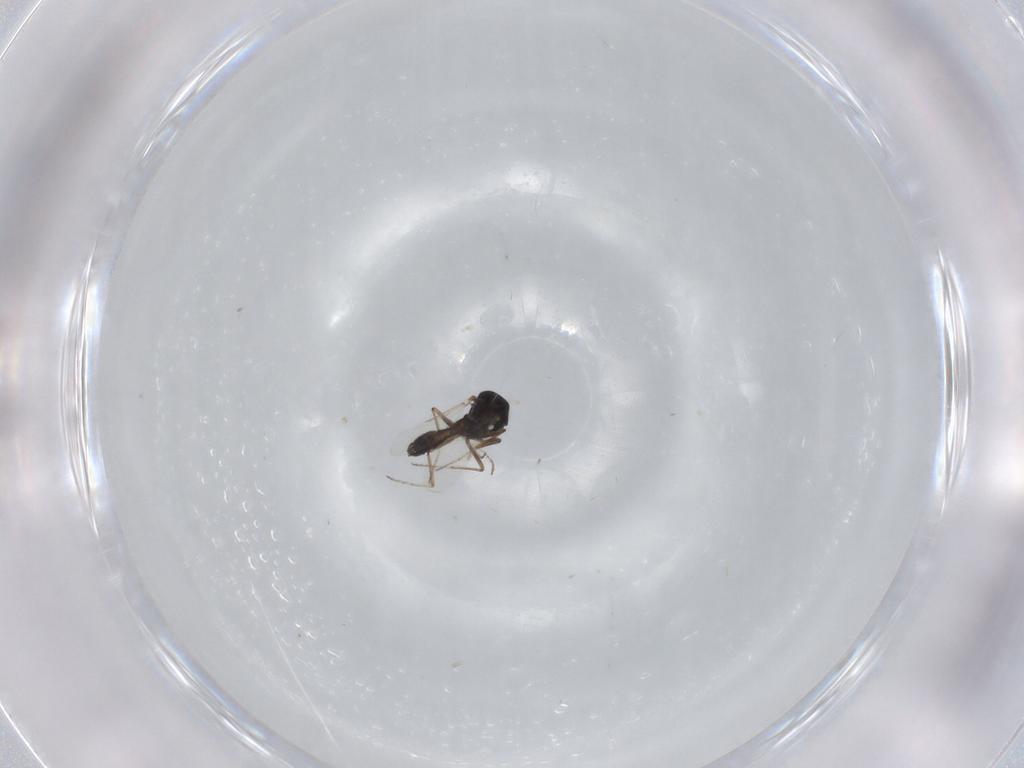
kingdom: Animalia
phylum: Arthropoda
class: Insecta
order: Diptera
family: Ceratopogonidae
